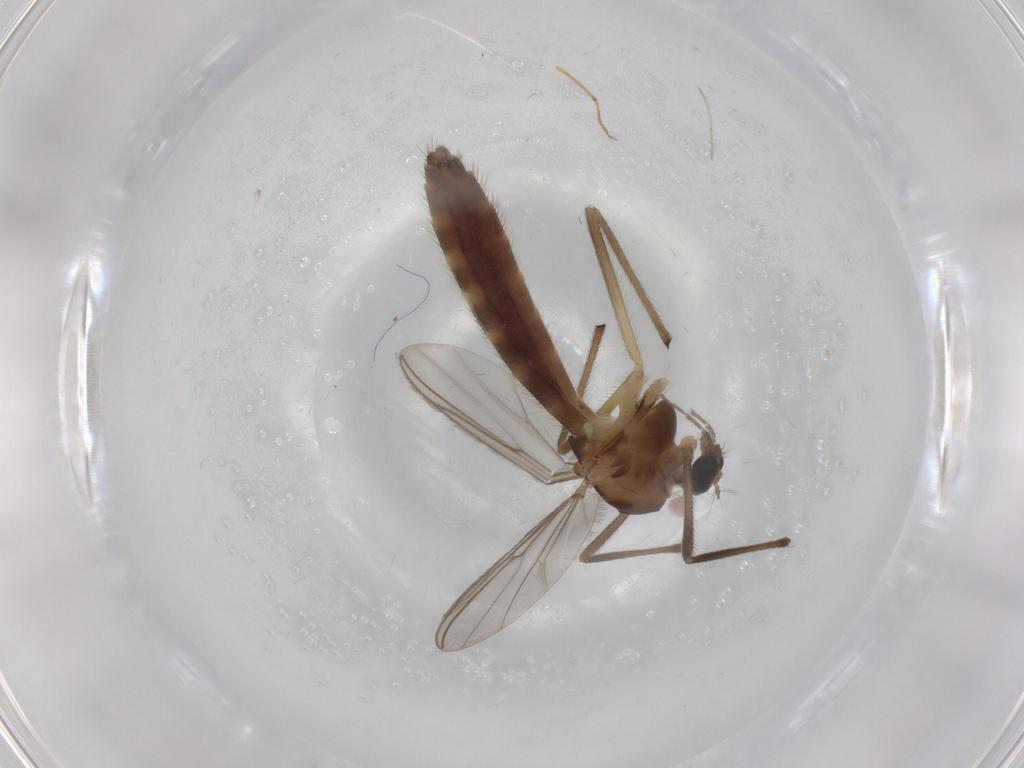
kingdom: Animalia
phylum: Arthropoda
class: Insecta
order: Diptera
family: Chironomidae
